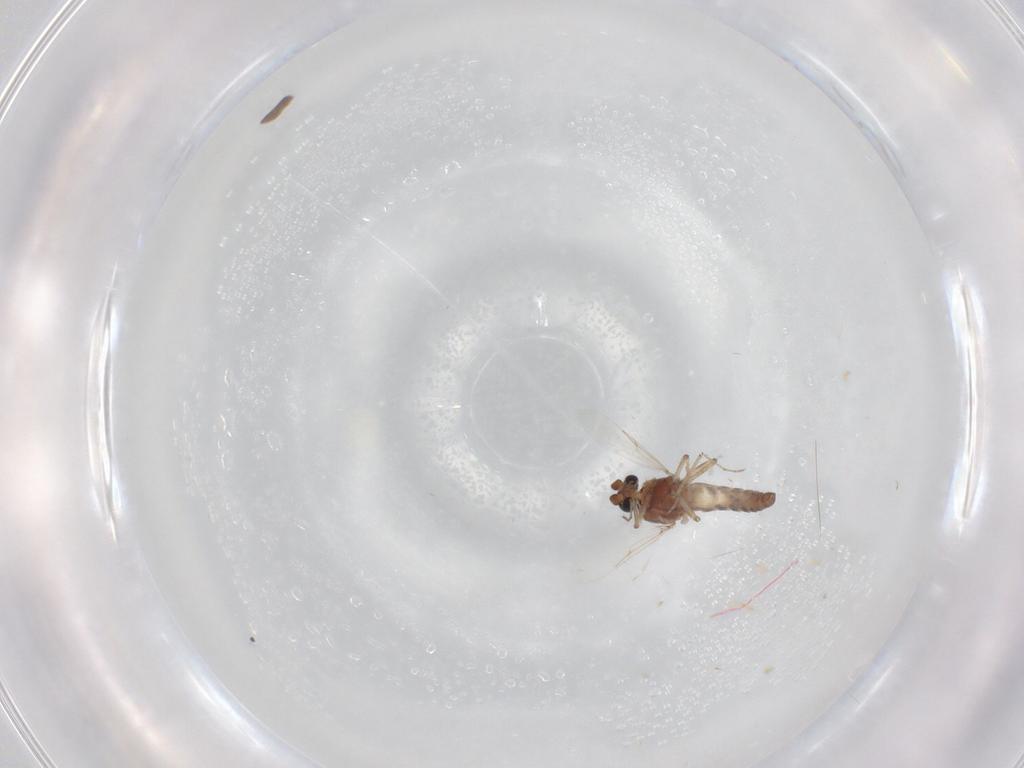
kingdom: Animalia
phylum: Arthropoda
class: Insecta
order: Diptera
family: Ceratopogonidae
